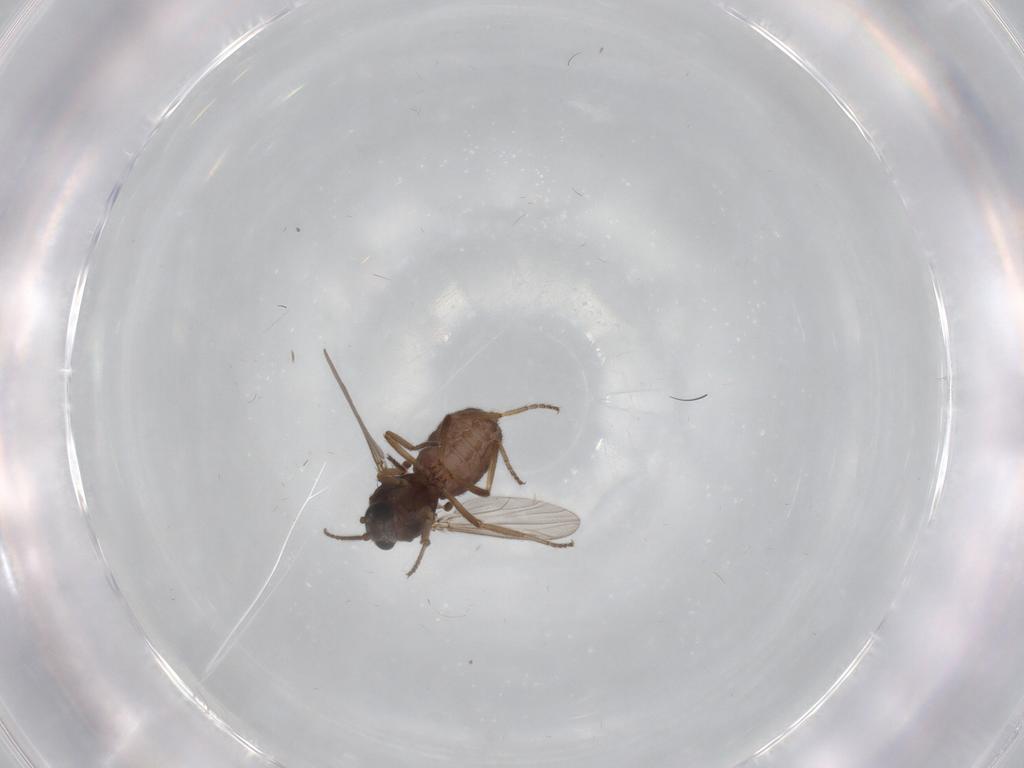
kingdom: Animalia
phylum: Arthropoda
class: Insecta
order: Diptera
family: Ceratopogonidae
